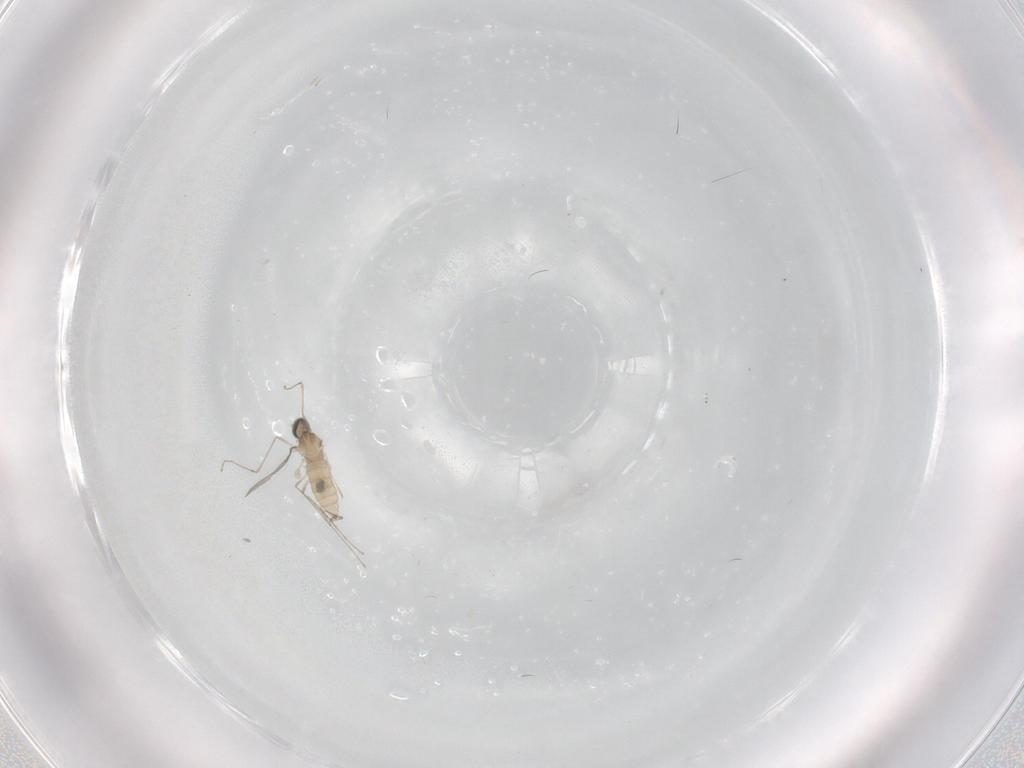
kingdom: Animalia
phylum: Arthropoda
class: Insecta
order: Diptera
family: Cecidomyiidae
